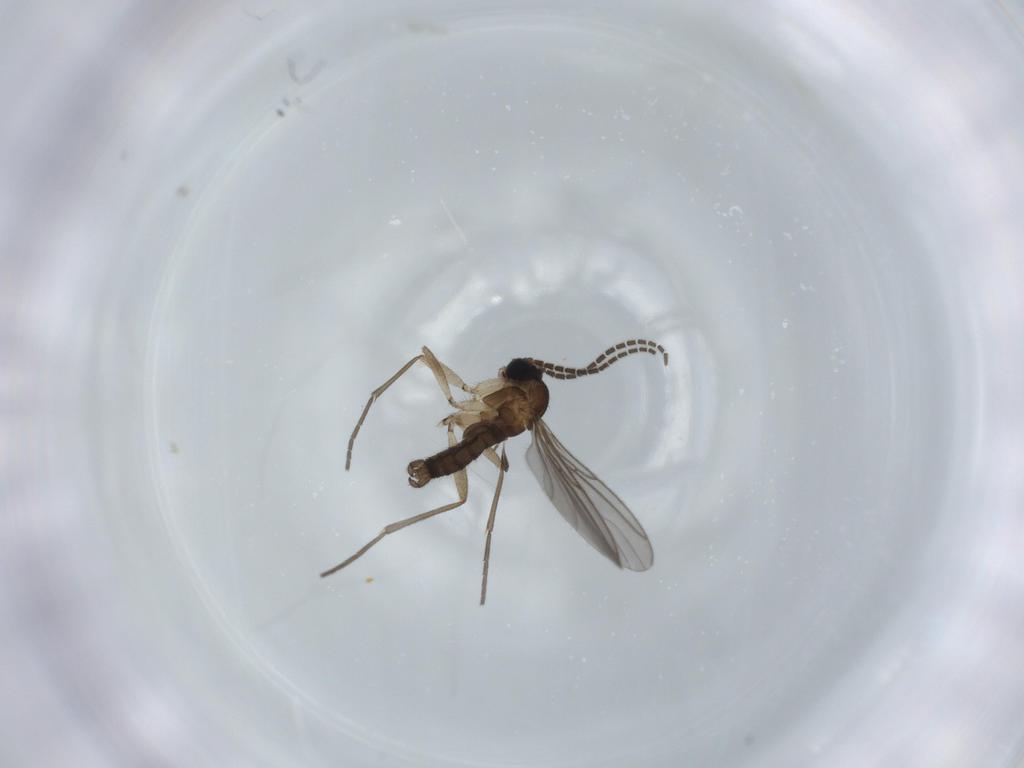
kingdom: Animalia
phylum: Arthropoda
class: Insecta
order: Diptera
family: Sciaridae
